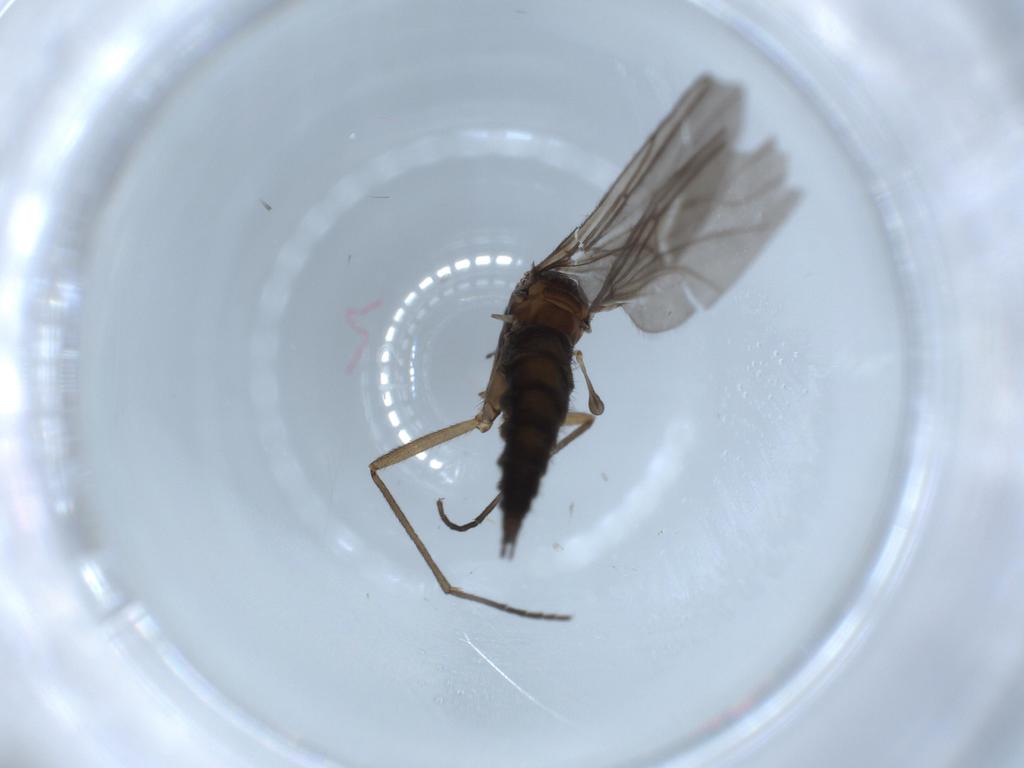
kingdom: Animalia
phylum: Arthropoda
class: Insecta
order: Diptera
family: Sciaridae
